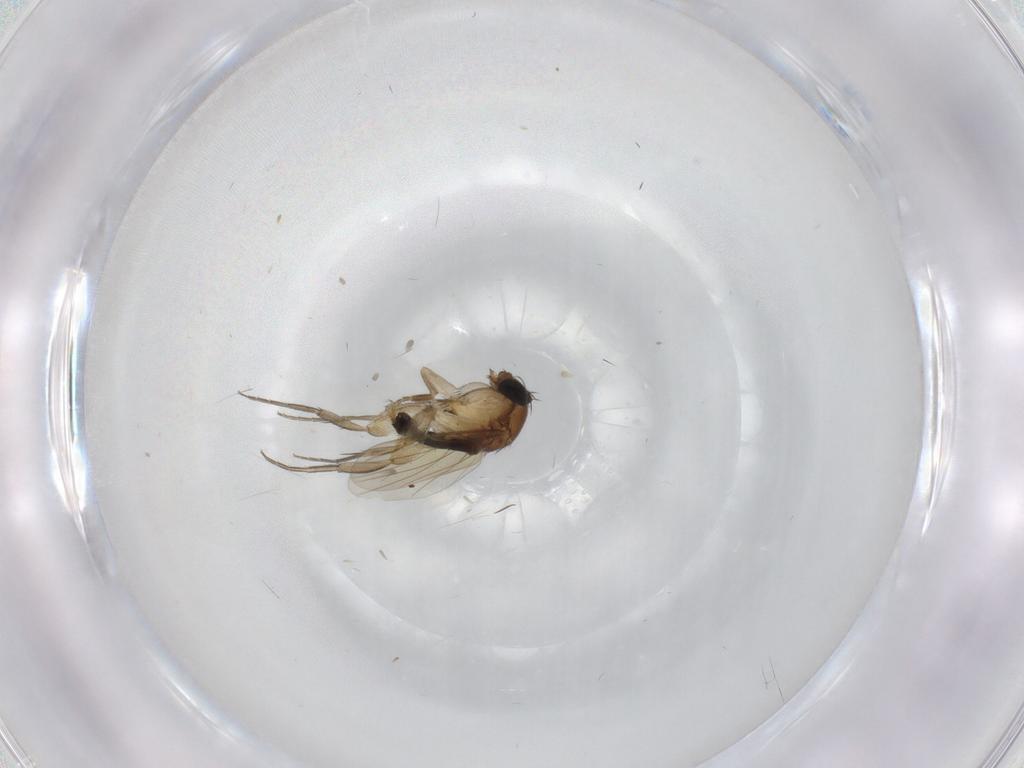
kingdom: Animalia
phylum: Arthropoda
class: Insecta
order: Diptera
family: Phoridae
